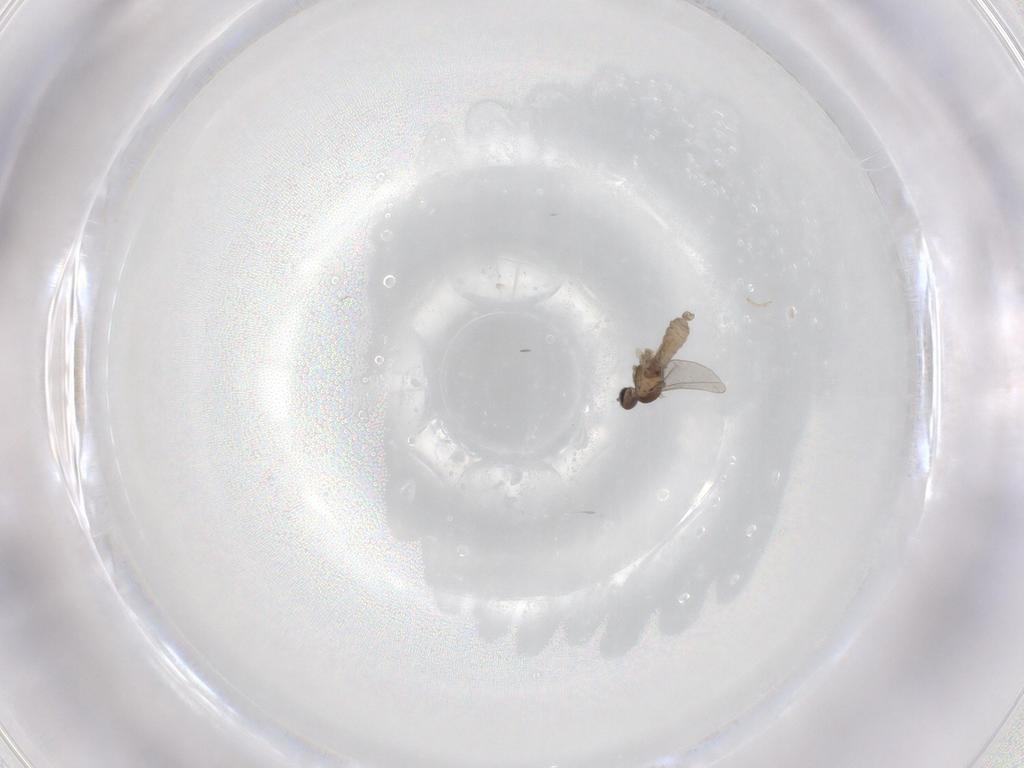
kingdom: Animalia
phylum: Arthropoda
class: Insecta
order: Diptera
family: Cecidomyiidae
